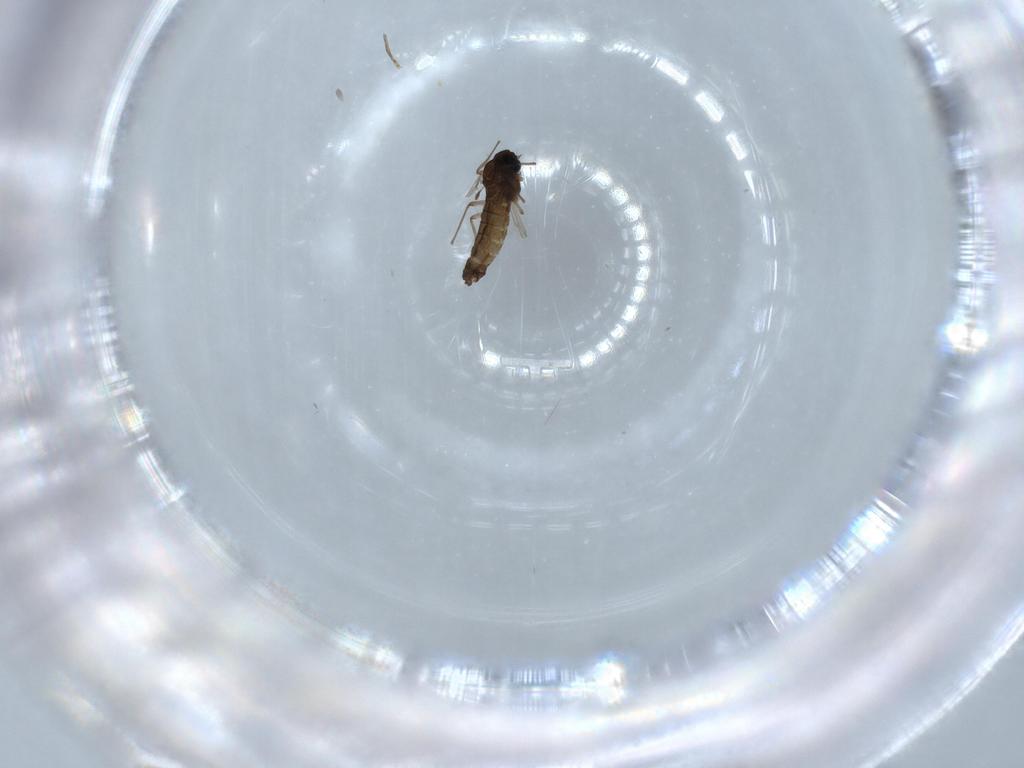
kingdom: Animalia
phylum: Arthropoda
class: Insecta
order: Diptera
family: Chironomidae
